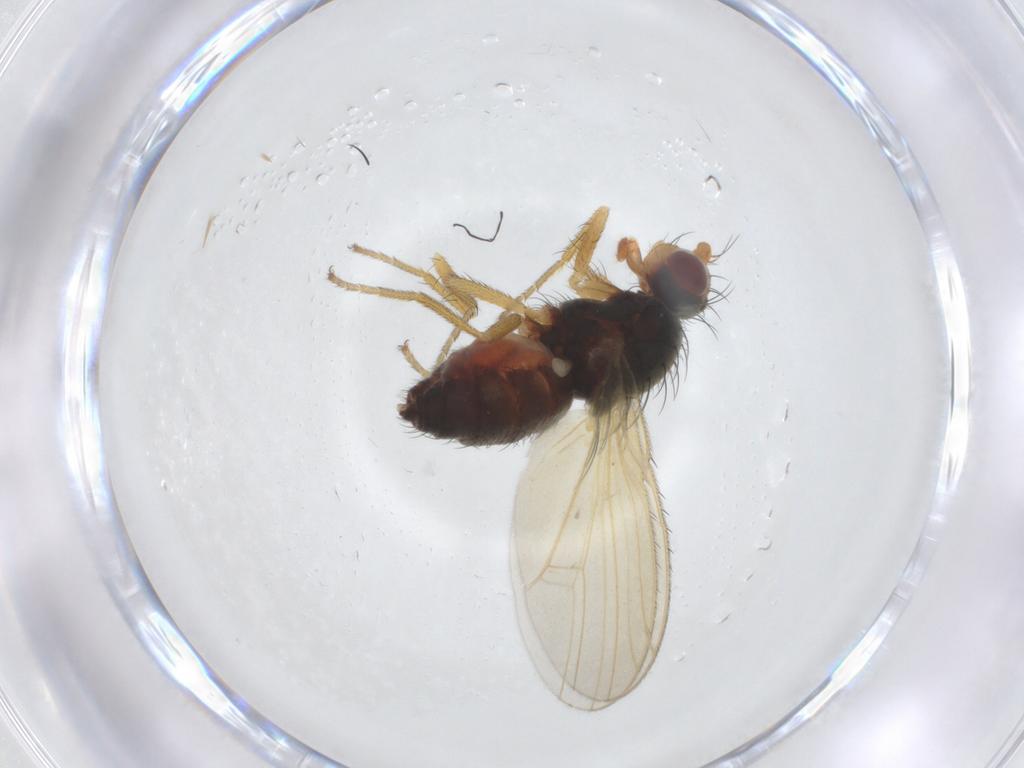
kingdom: Animalia
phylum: Arthropoda
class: Insecta
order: Diptera
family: Heleomyzidae
